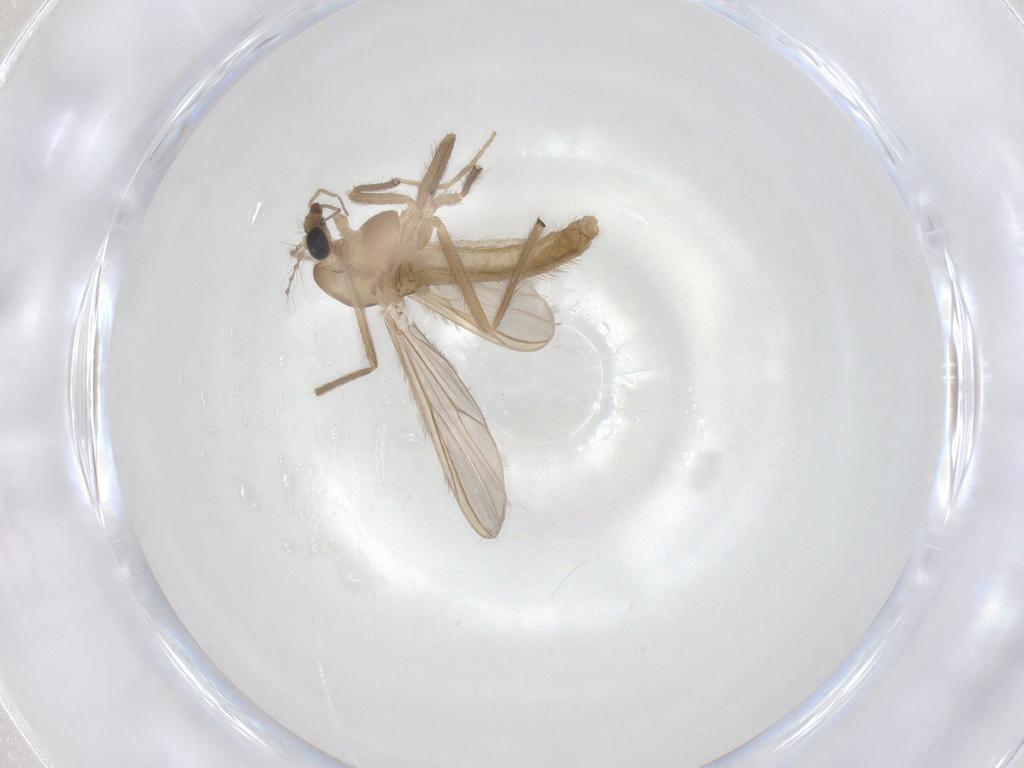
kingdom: Animalia
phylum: Arthropoda
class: Insecta
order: Diptera
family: Chironomidae
